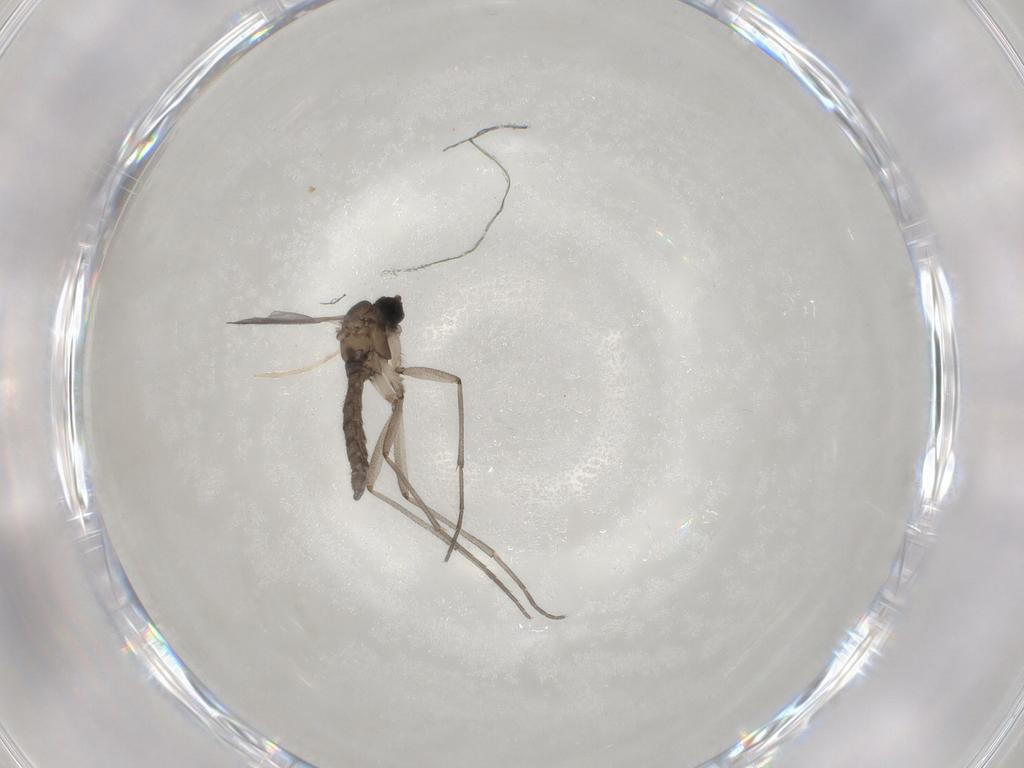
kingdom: Animalia
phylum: Arthropoda
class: Insecta
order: Diptera
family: Sciaridae
